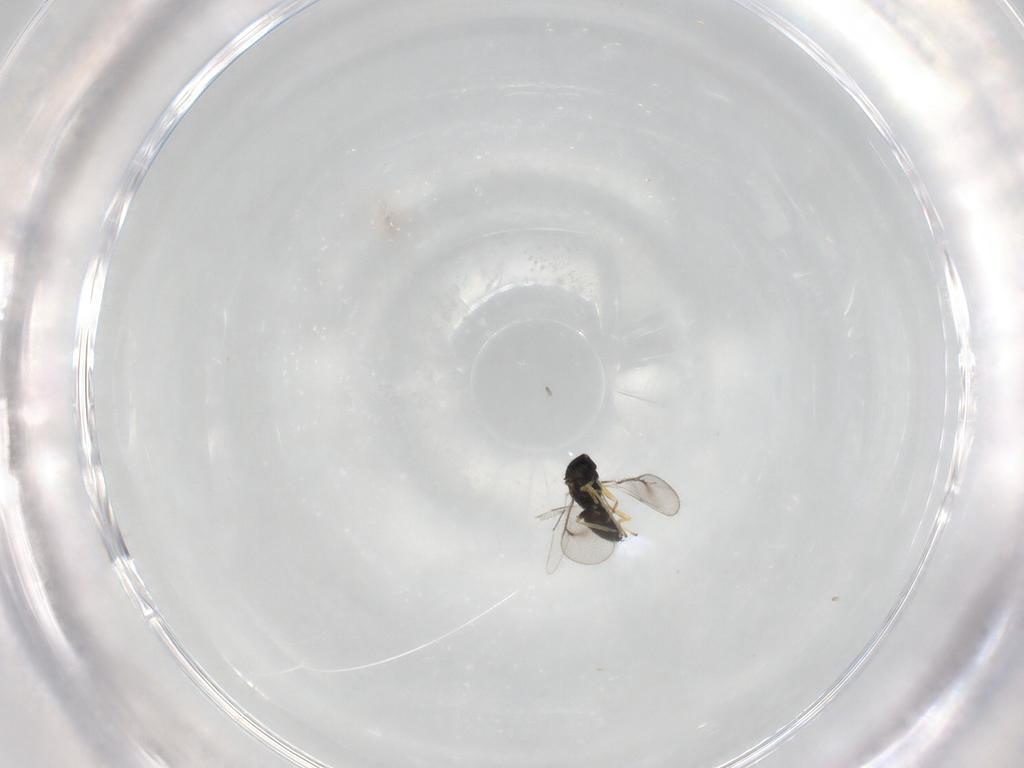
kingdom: Animalia
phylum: Arthropoda
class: Insecta
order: Hymenoptera
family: Eulophidae
